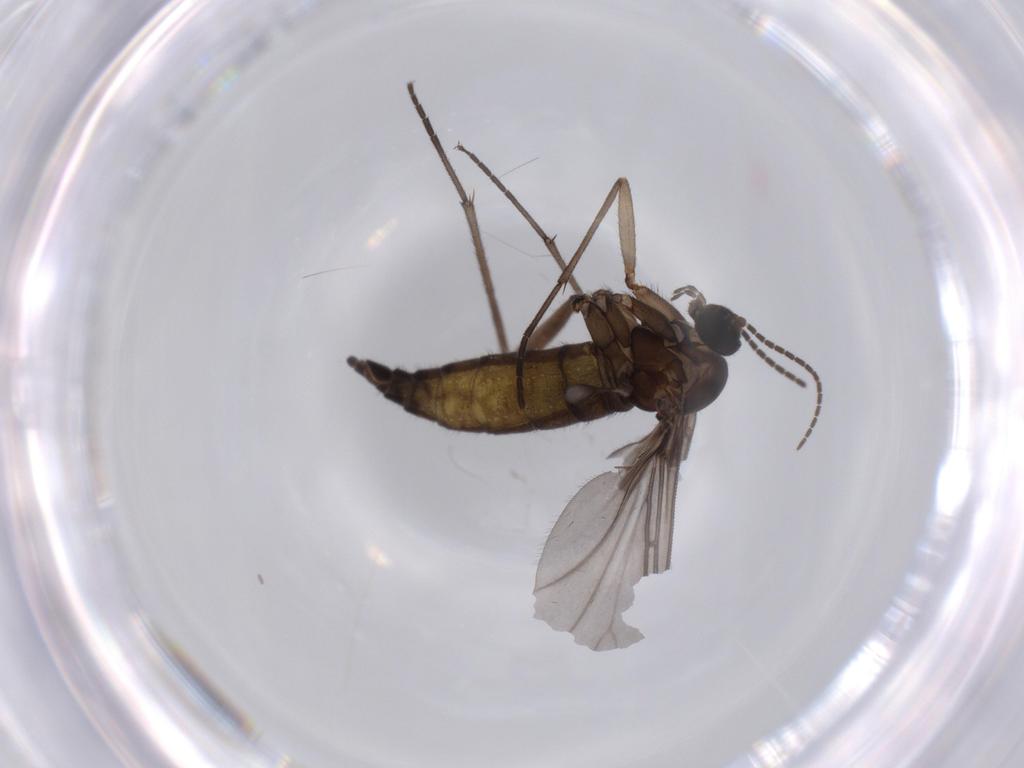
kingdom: Animalia
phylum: Arthropoda
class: Insecta
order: Diptera
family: Sciaridae
